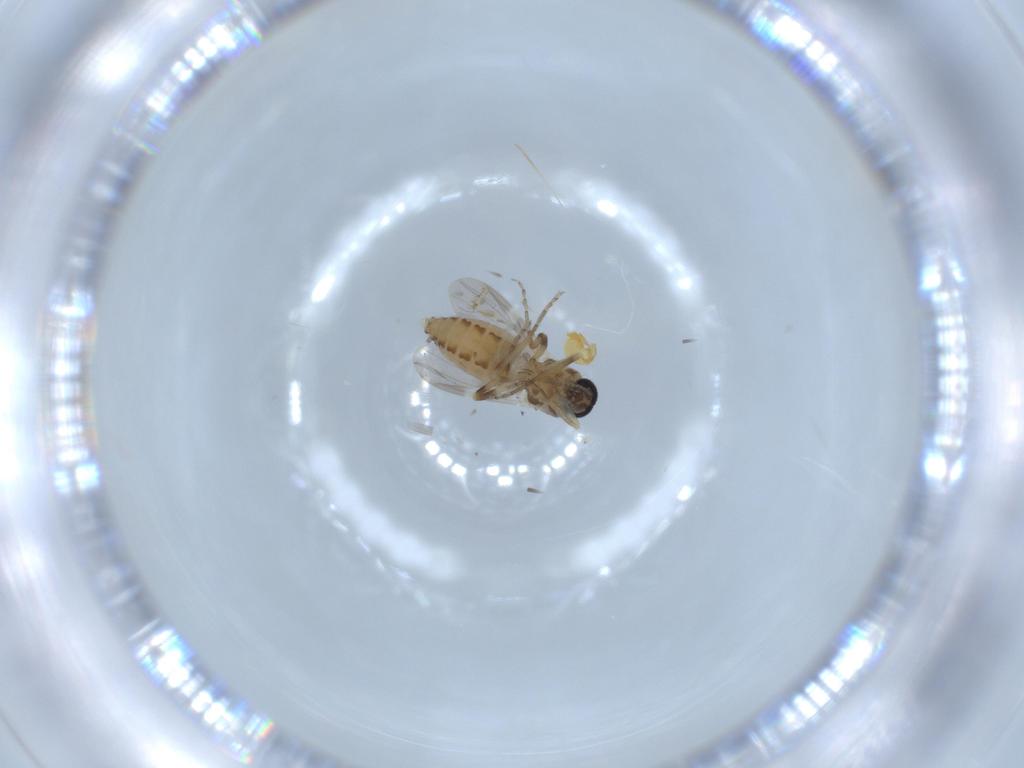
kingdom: Animalia
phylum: Arthropoda
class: Insecta
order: Diptera
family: Ceratopogonidae
